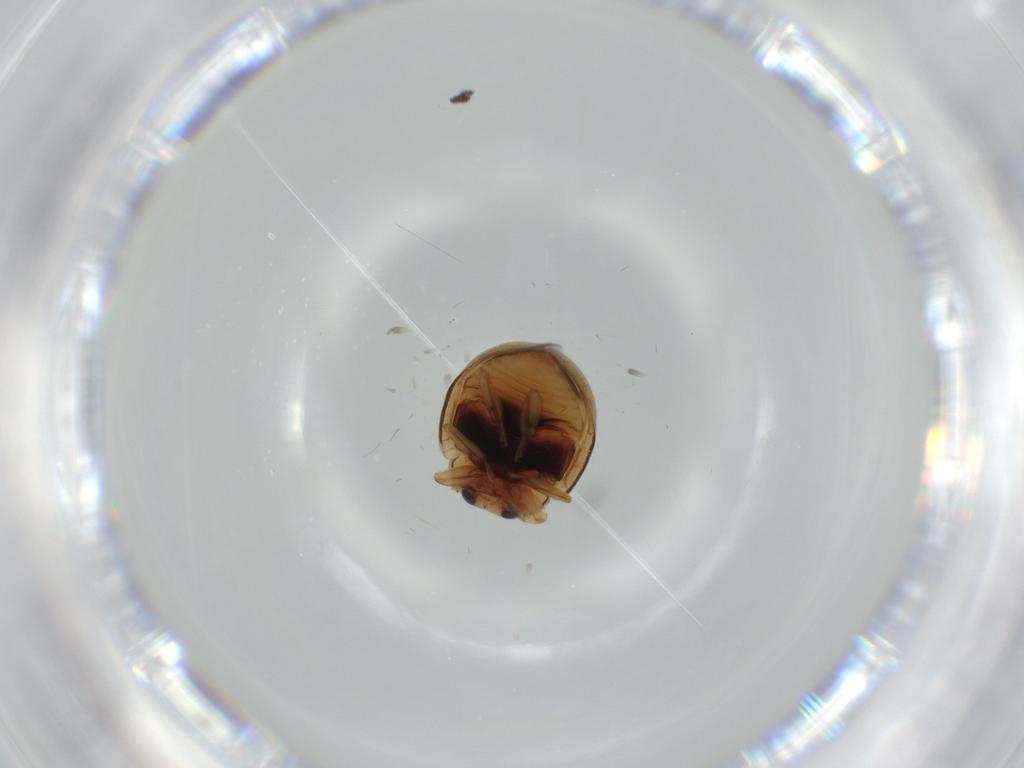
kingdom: Animalia
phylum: Arthropoda
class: Insecta
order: Coleoptera
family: Coccinellidae
